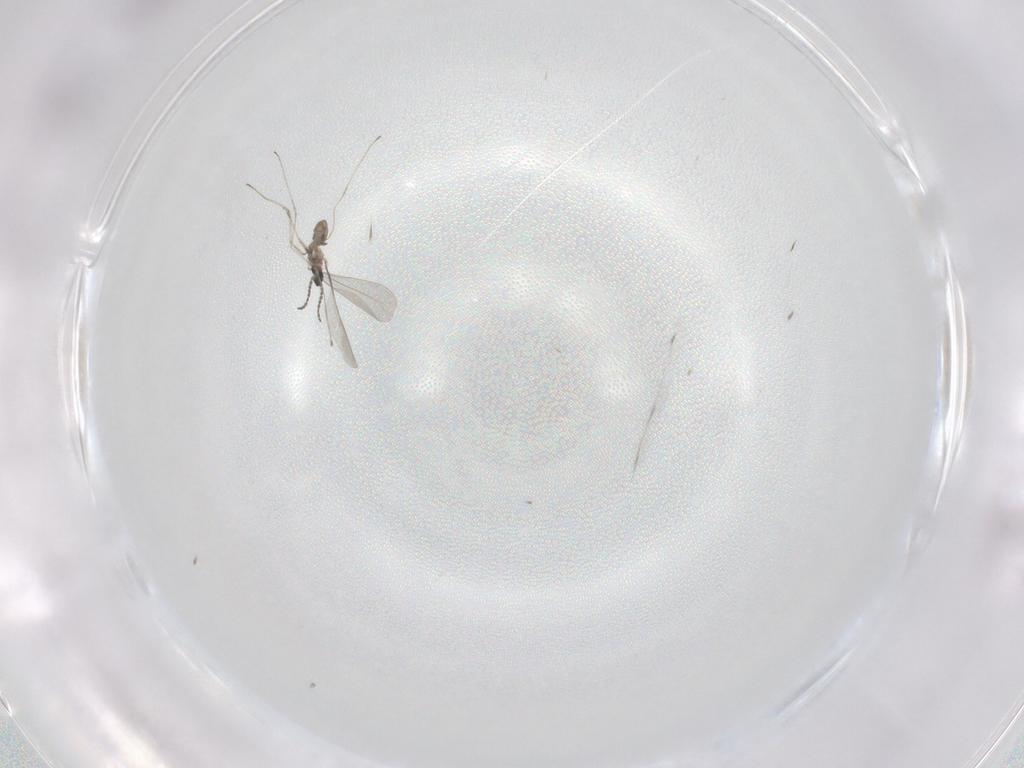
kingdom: Animalia
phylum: Arthropoda
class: Insecta
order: Diptera
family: Cecidomyiidae
